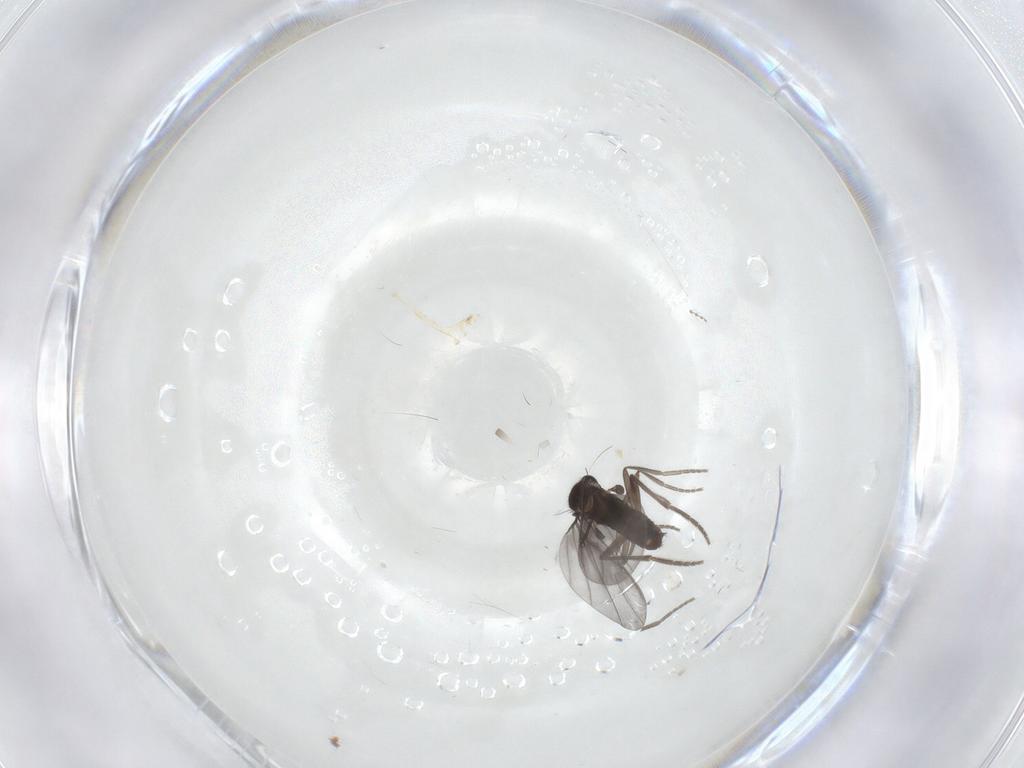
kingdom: Animalia
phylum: Arthropoda
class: Insecta
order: Diptera
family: Phoridae
